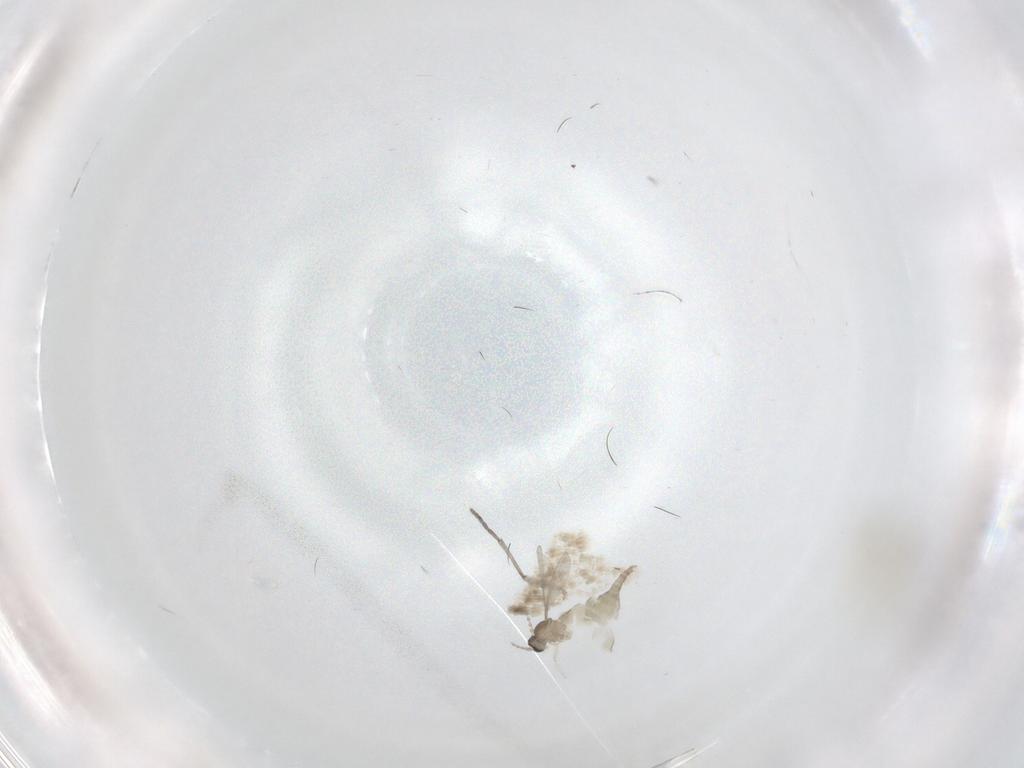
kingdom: Animalia
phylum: Arthropoda
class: Insecta
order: Diptera
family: Cecidomyiidae
